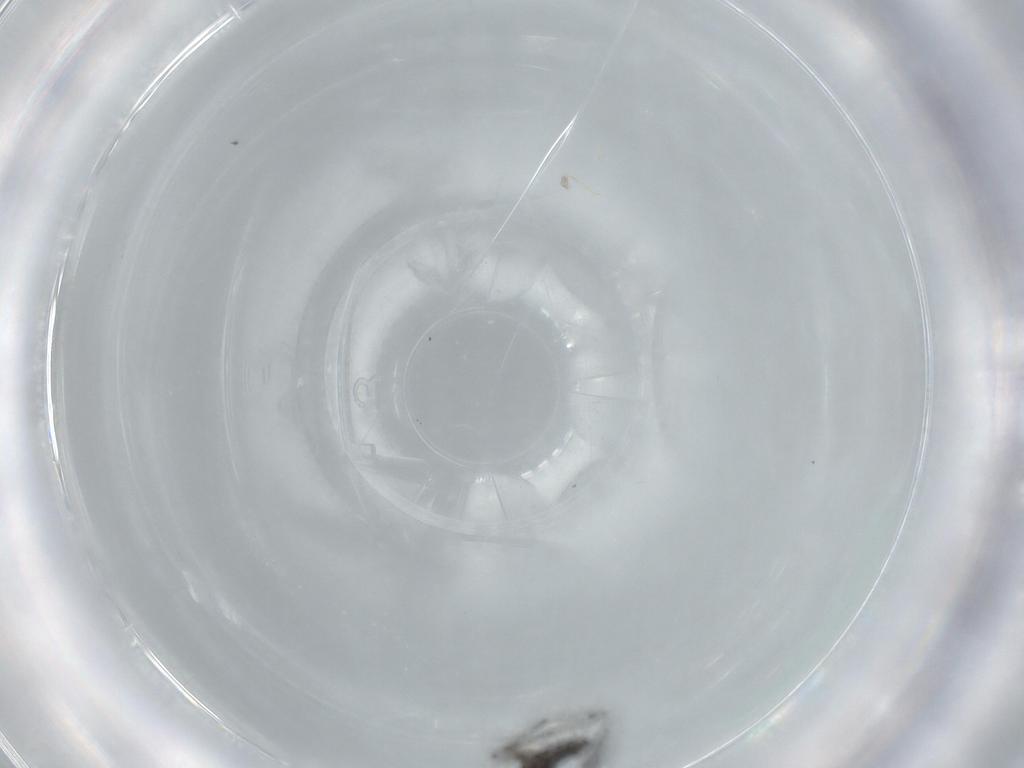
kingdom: Animalia
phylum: Arthropoda
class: Insecta
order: Diptera
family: Sciaridae
